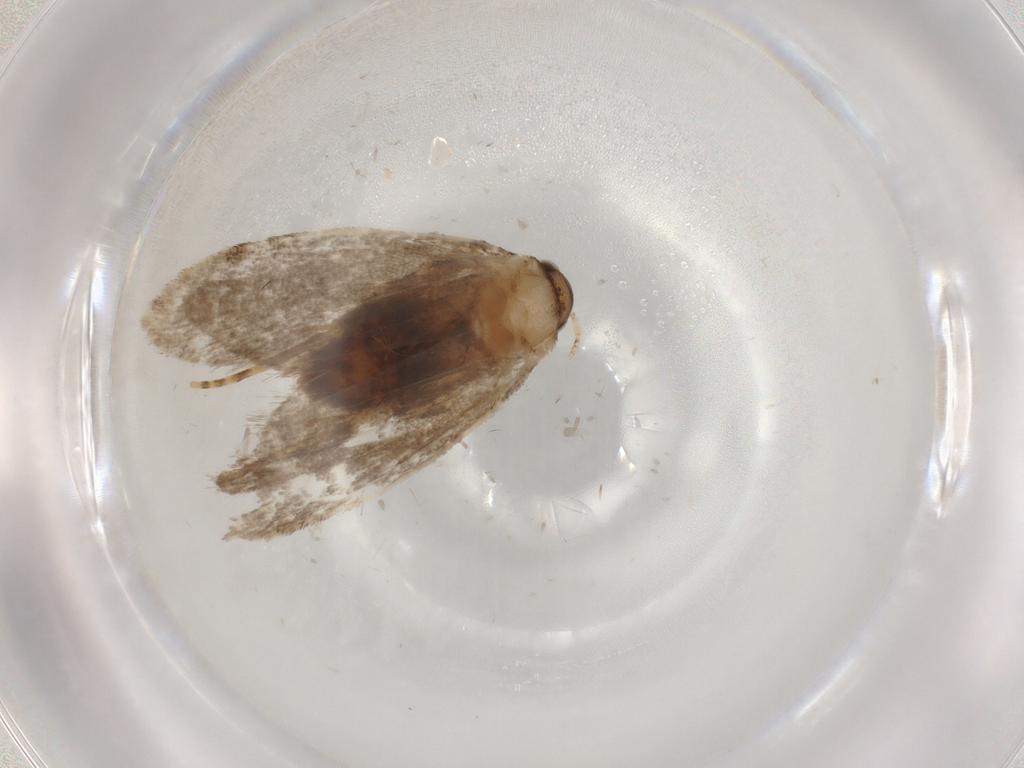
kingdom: Animalia
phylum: Arthropoda
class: Insecta
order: Lepidoptera
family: Tineidae
